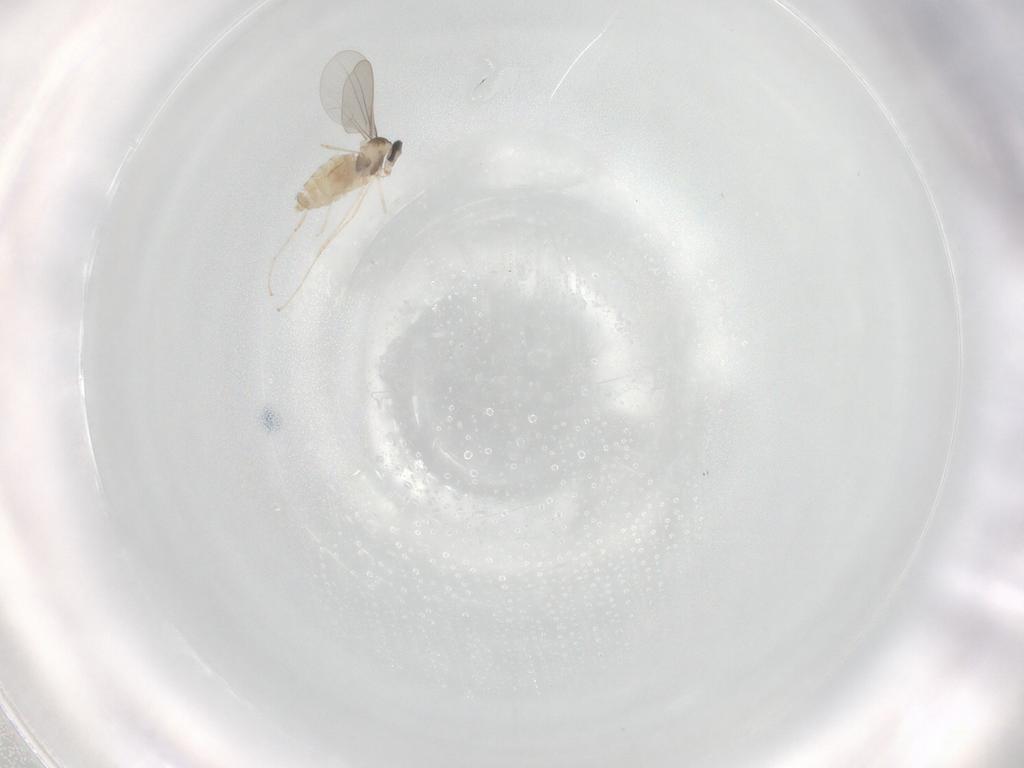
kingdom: Animalia
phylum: Arthropoda
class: Insecta
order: Diptera
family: Cecidomyiidae
